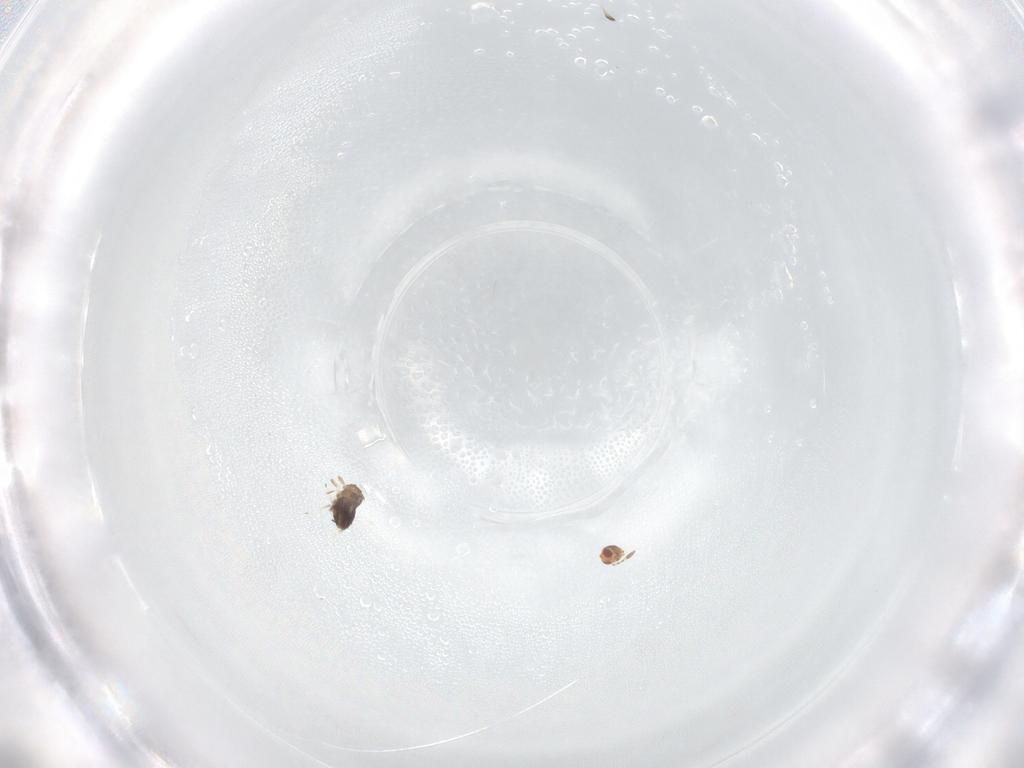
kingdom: Animalia
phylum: Arthropoda
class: Insecta
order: Hymenoptera
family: Azotidae
